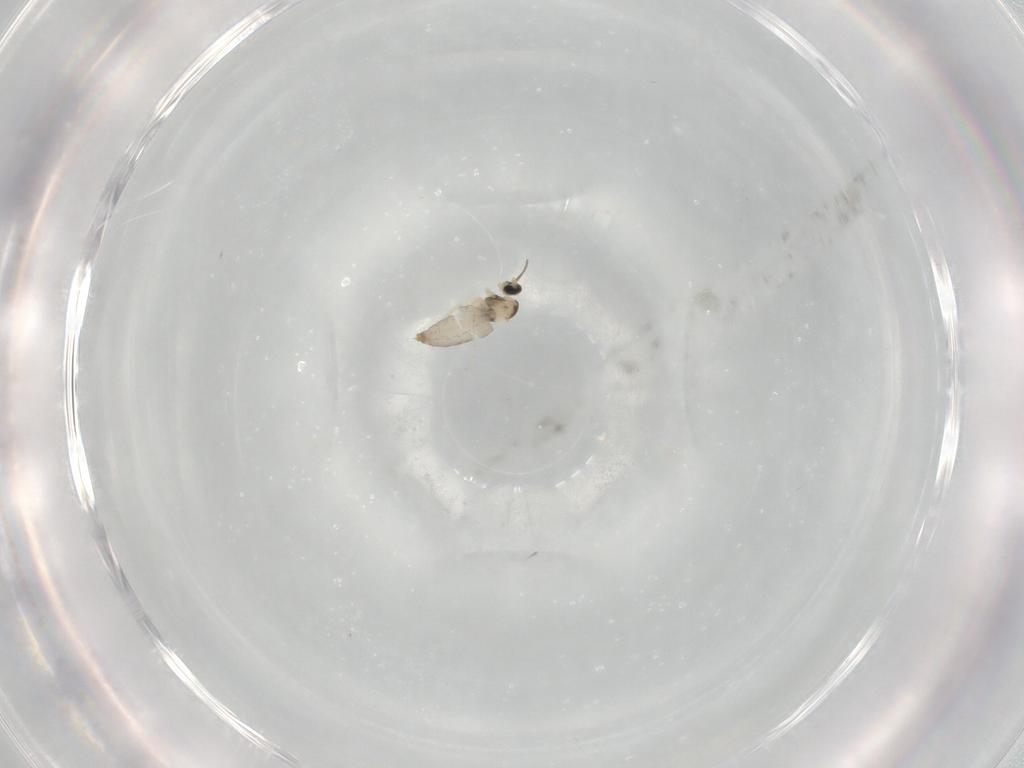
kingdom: Animalia
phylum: Arthropoda
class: Insecta
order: Diptera
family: Cecidomyiidae
